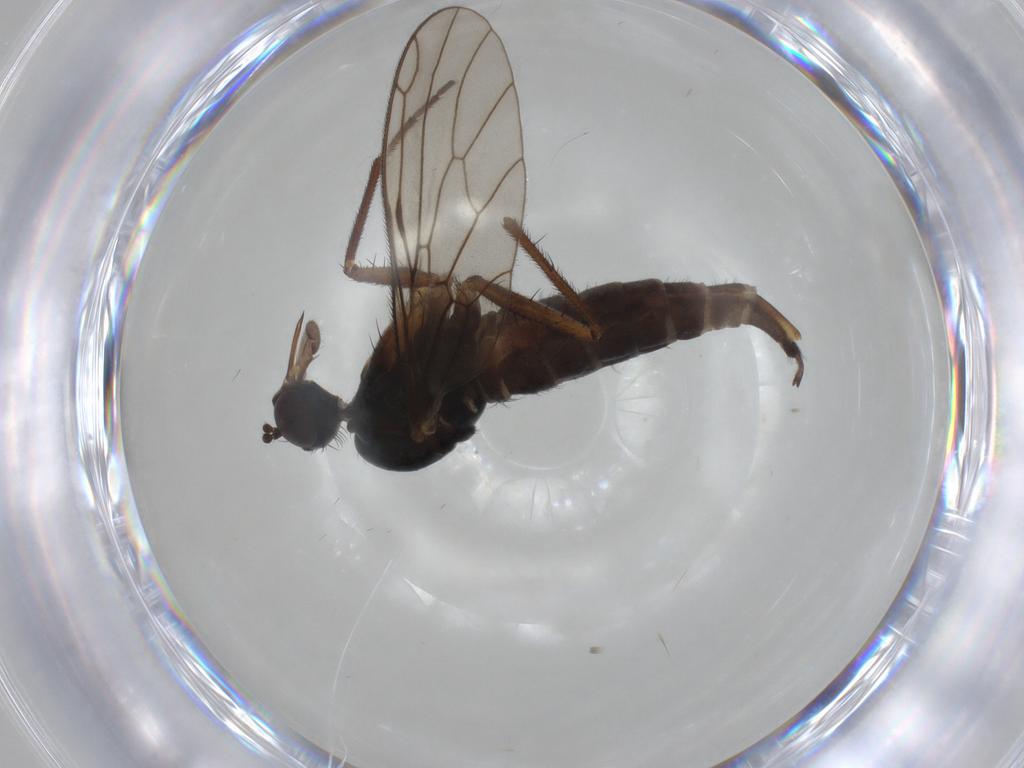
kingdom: Animalia
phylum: Arthropoda
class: Insecta
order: Diptera
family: Empididae
